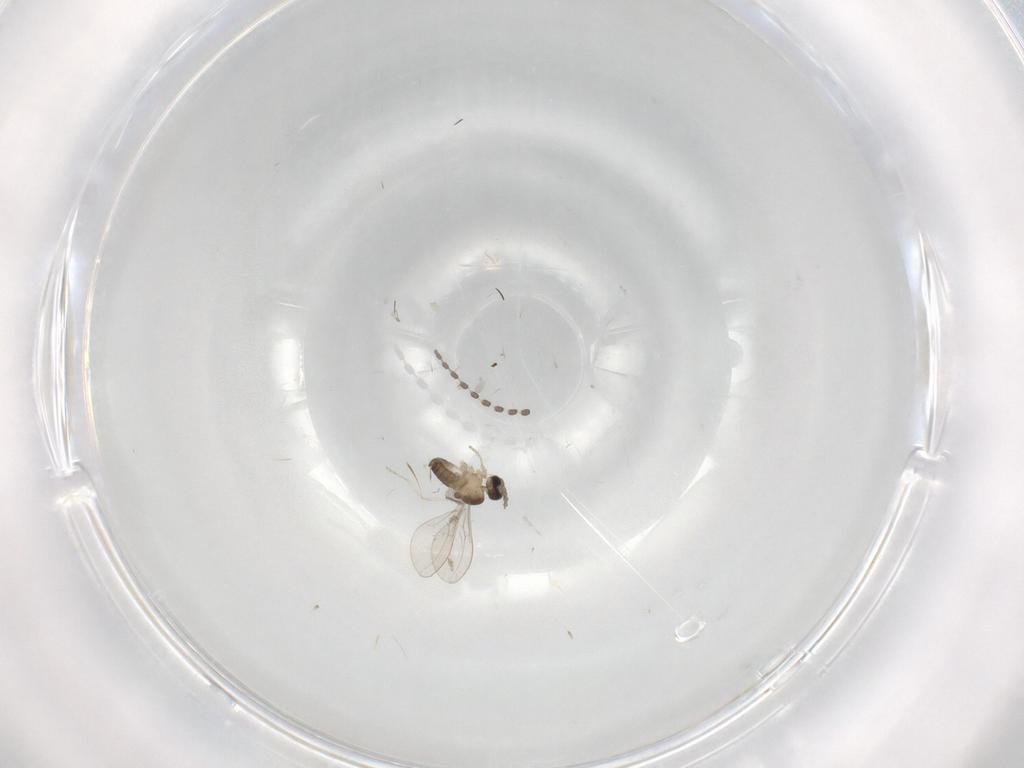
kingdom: Animalia
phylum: Arthropoda
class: Insecta
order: Diptera
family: Cecidomyiidae
